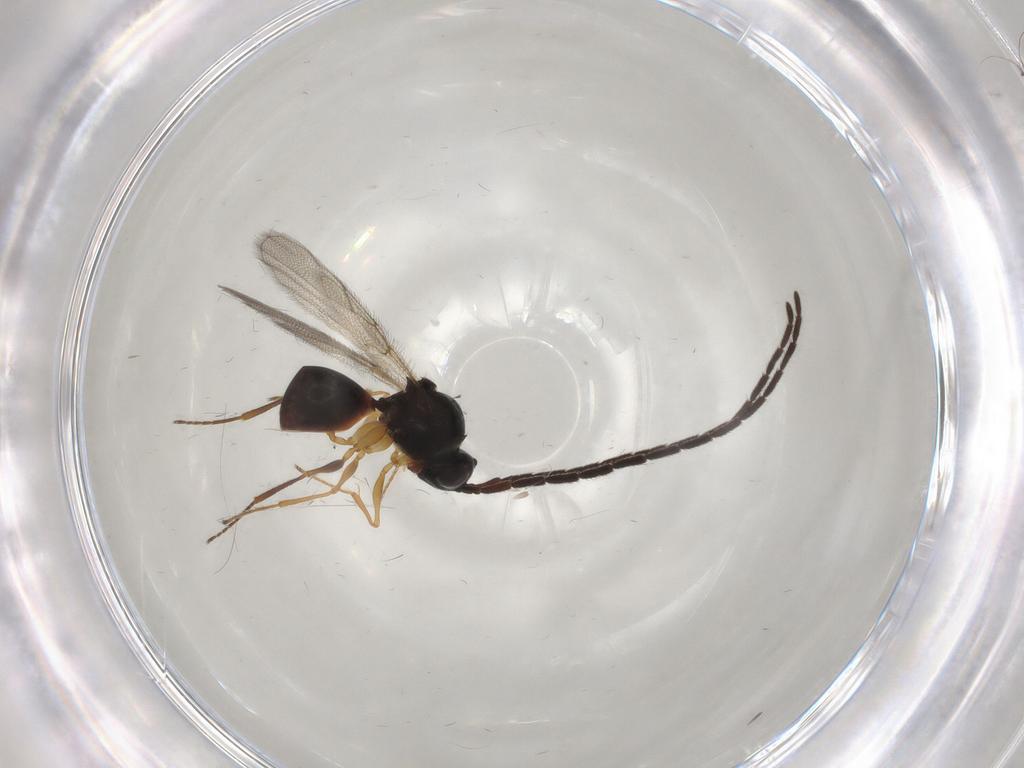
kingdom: Animalia
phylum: Arthropoda
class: Insecta
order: Hymenoptera
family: Figitidae
